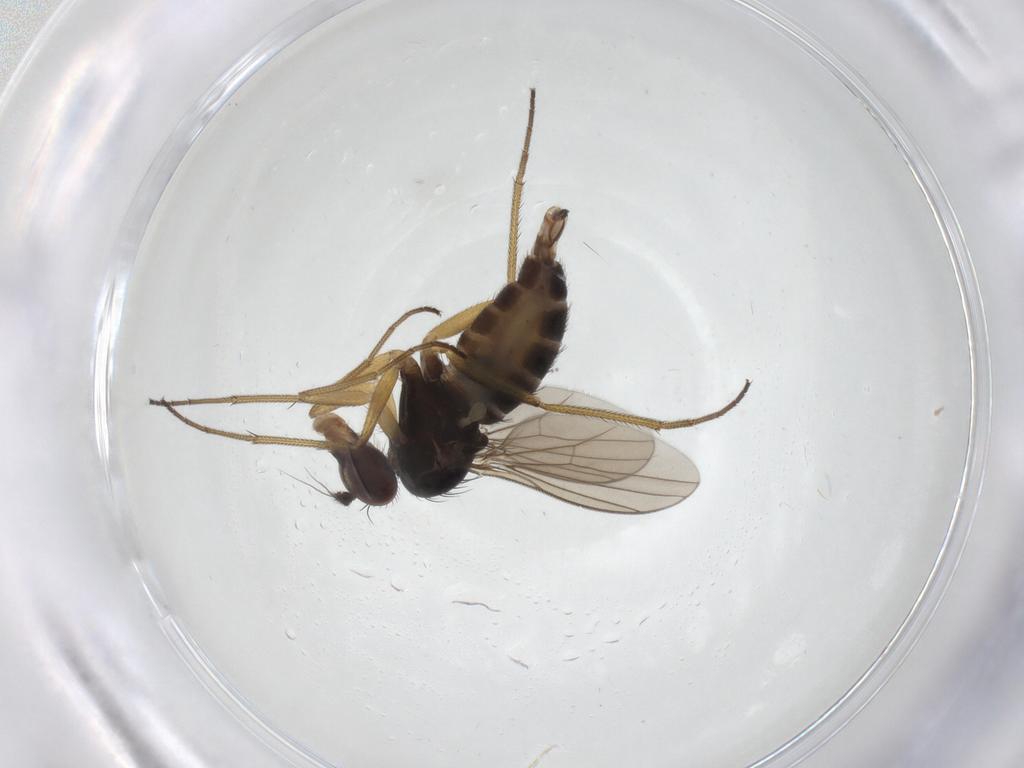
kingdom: Animalia
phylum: Arthropoda
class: Insecta
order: Diptera
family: Dolichopodidae
